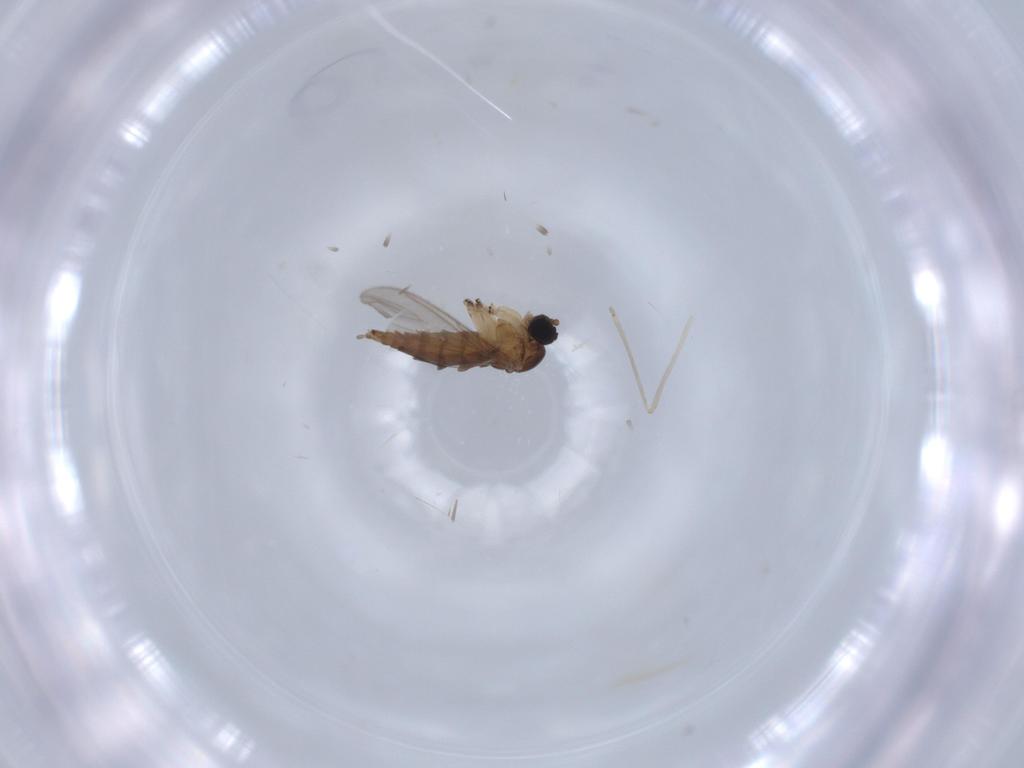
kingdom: Animalia
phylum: Arthropoda
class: Insecta
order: Diptera
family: Sciaridae
